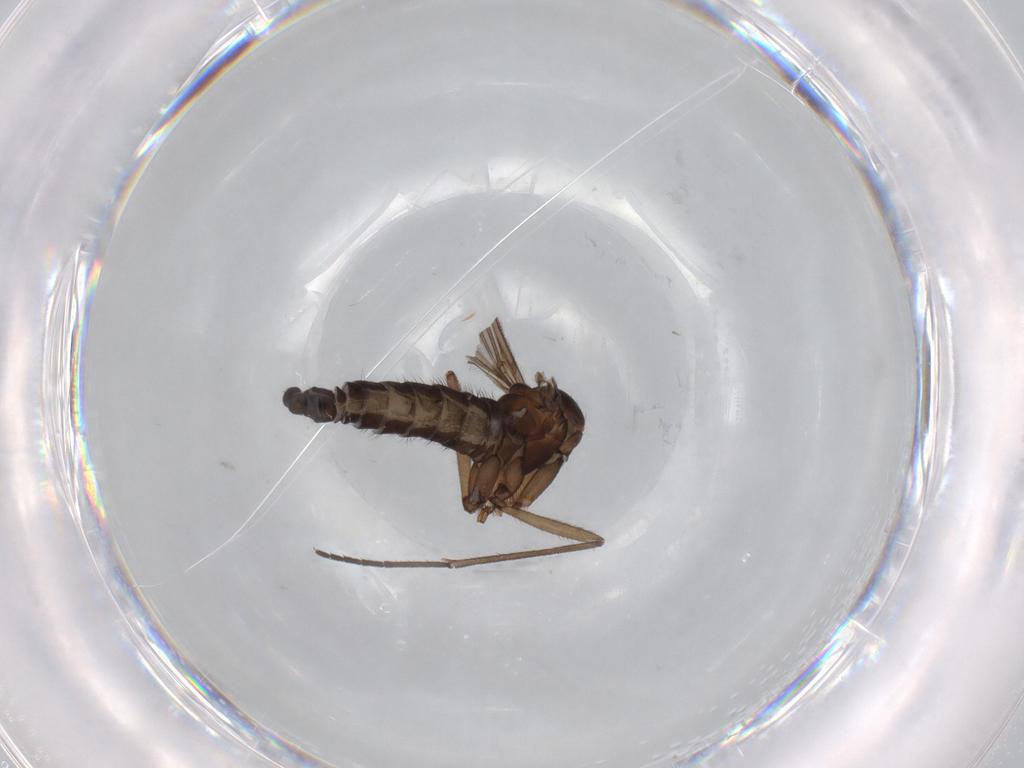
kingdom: Animalia
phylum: Arthropoda
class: Insecta
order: Diptera
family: Sciaridae
